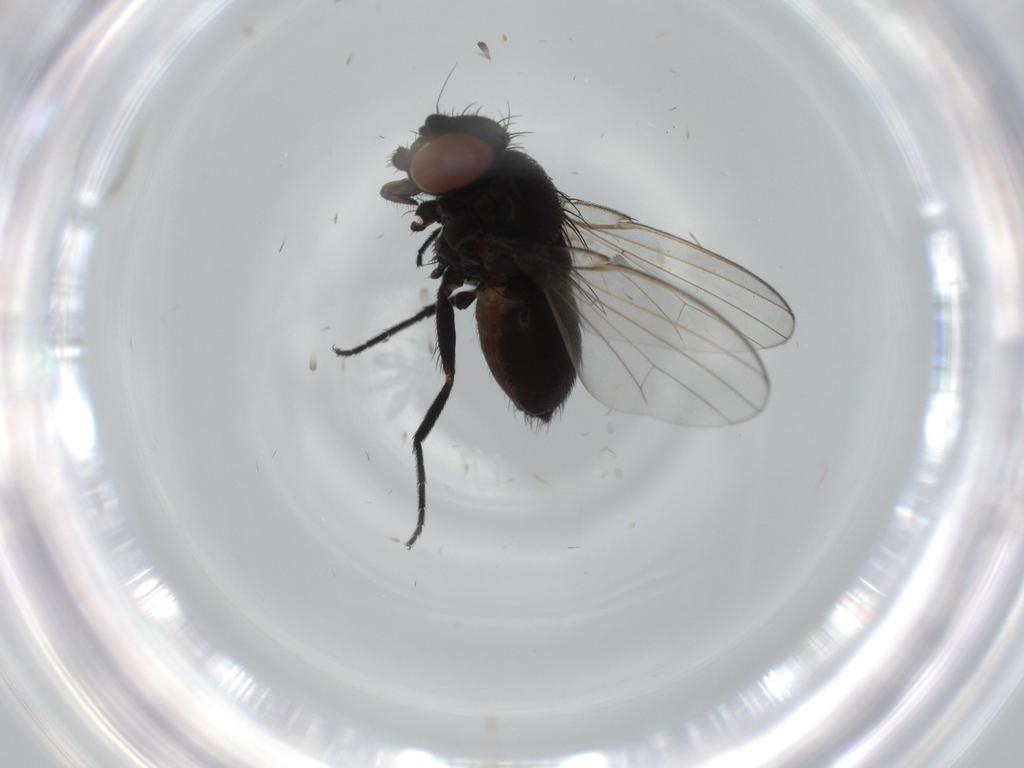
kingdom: Animalia
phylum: Arthropoda
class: Insecta
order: Diptera
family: Milichiidae
